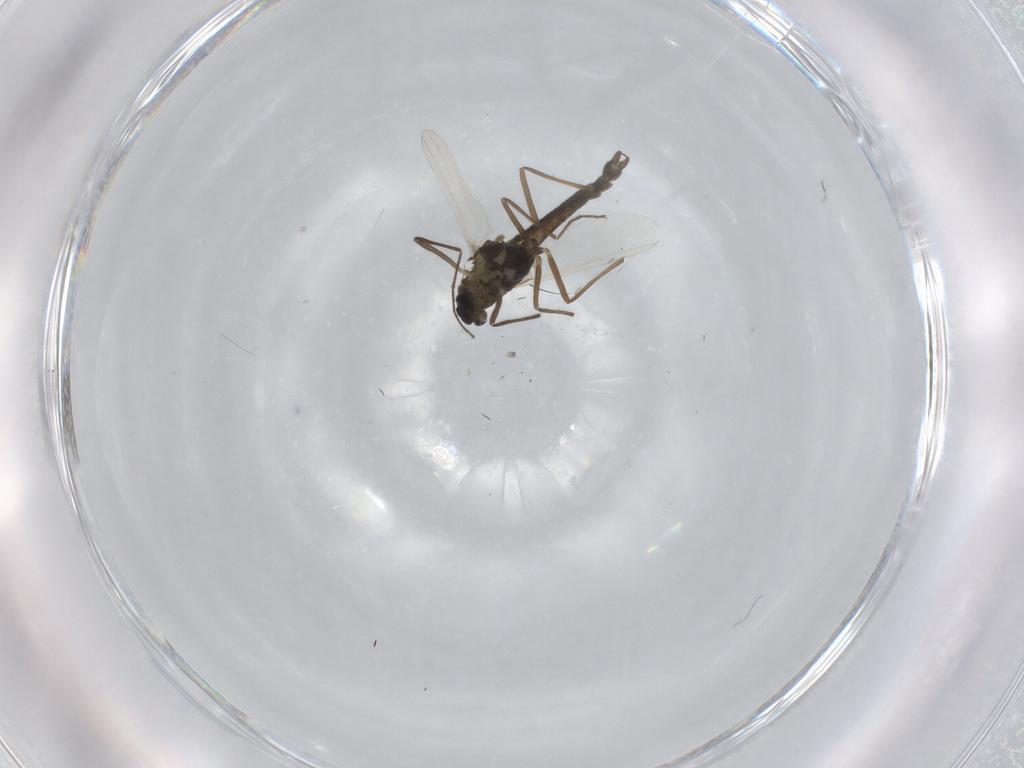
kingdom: Animalia
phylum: Arthropoda
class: Insecta
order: Diptera
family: Chironomidae
